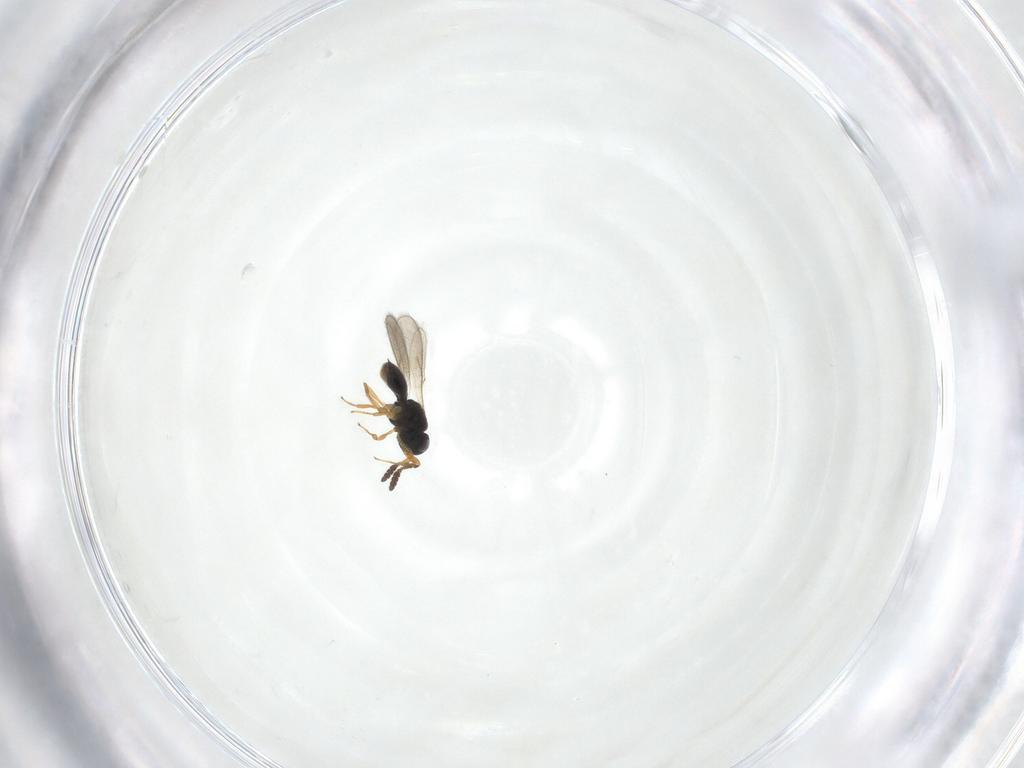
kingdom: Animalia
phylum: Arthropoda
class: Insecta
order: Hymenoptera
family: Scelionidae
